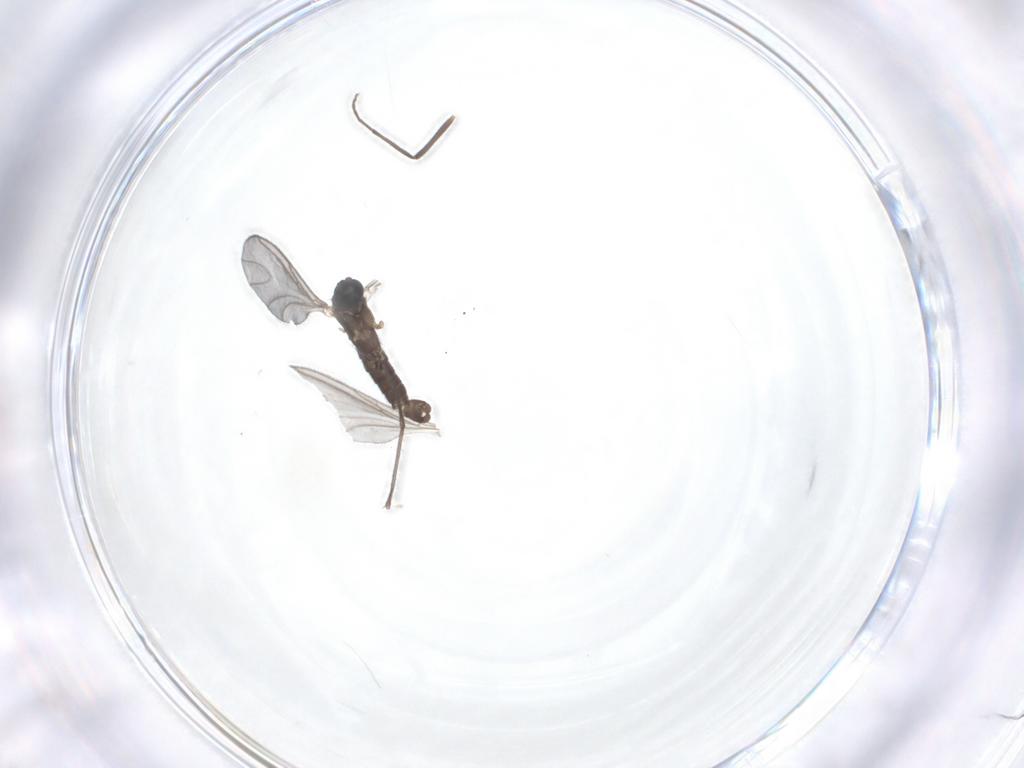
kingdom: Animalia
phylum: Arthropoda
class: Insecta
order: Diptera
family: Sciaridae
